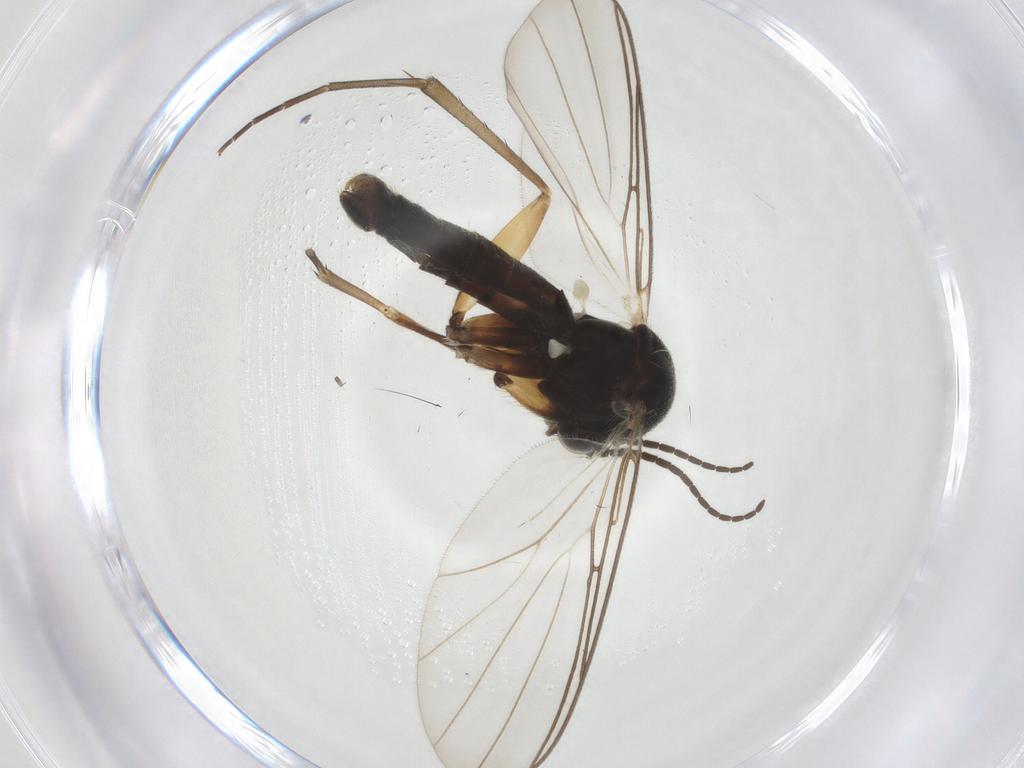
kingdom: Animalia
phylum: Arthropoda
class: Insecta
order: Diptera
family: Mycetophilidae
